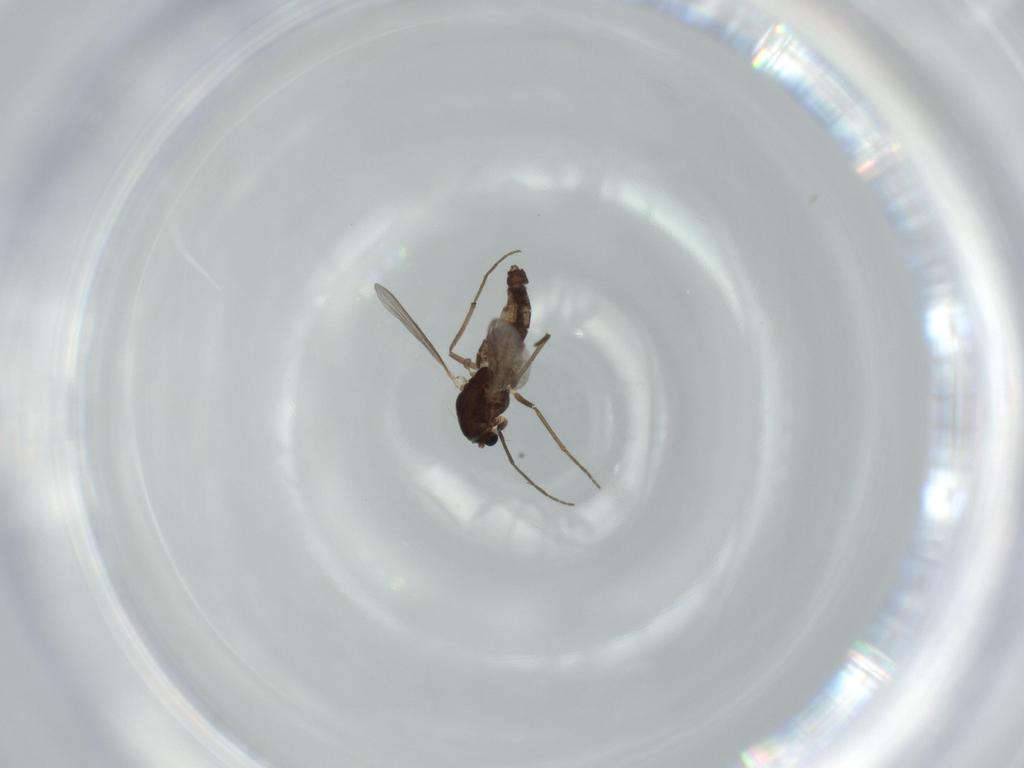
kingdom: Animalia
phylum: Arthropoda
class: Insecta
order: Diptera
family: Chironomidae
